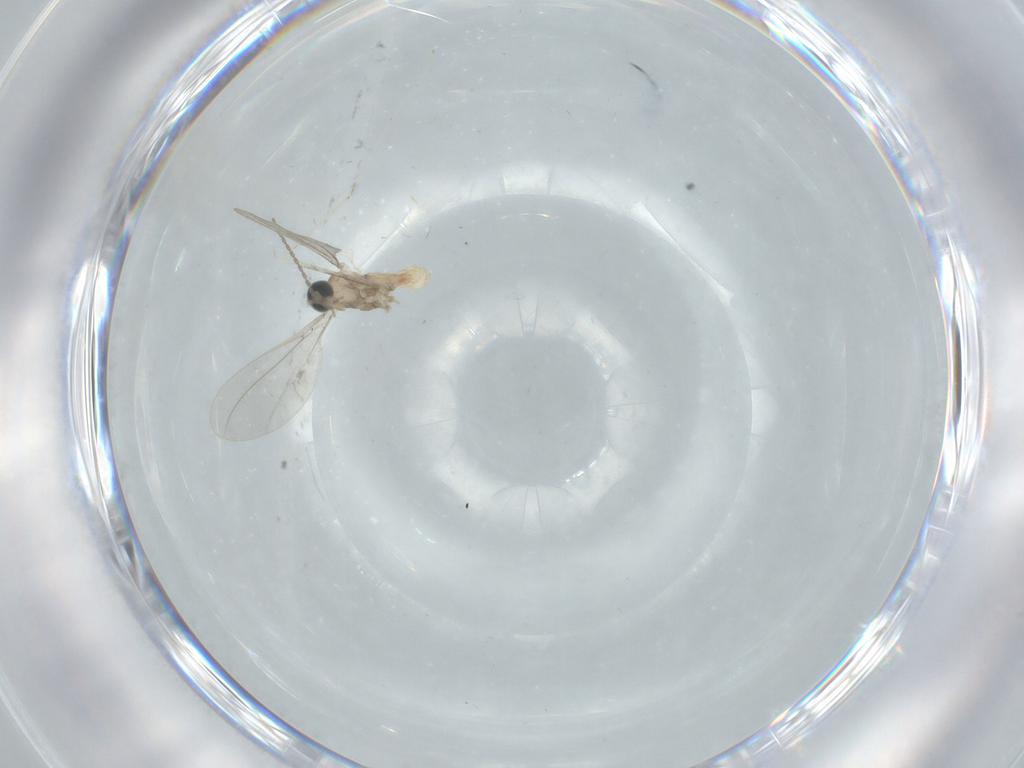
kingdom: Animalia
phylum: Arthropoda
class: Insecta
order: Diptera
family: Cecidomyiidae
